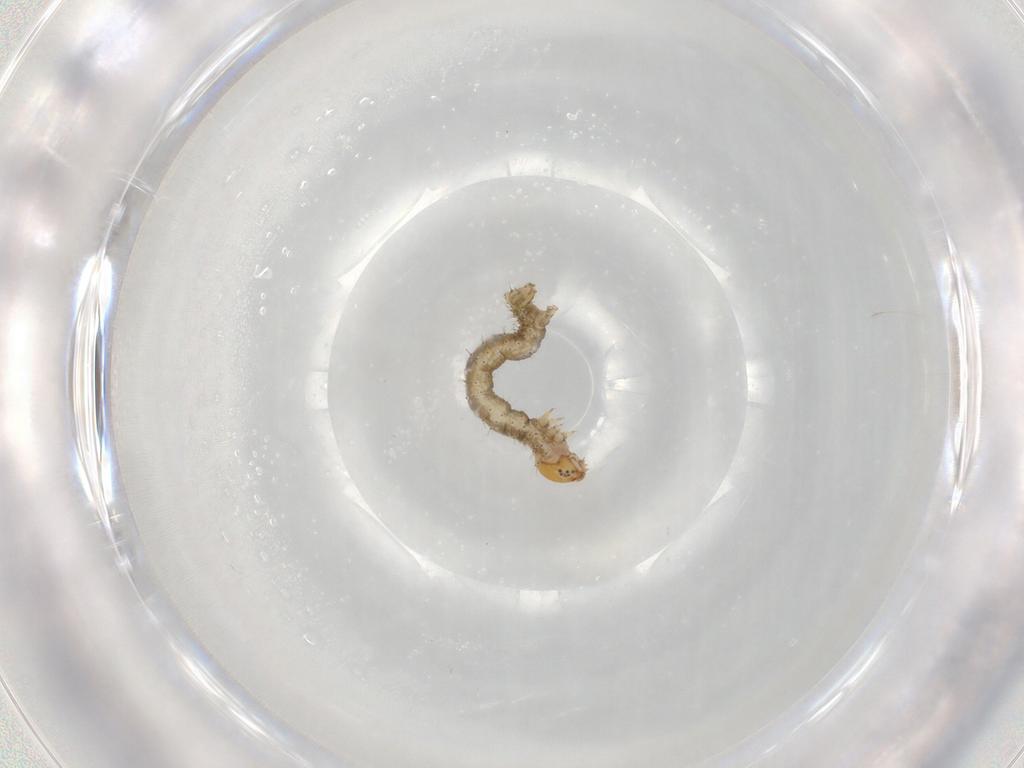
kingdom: Animalia
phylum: Arthropoda
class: Insecta
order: Lepidoptera
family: Geometridae
